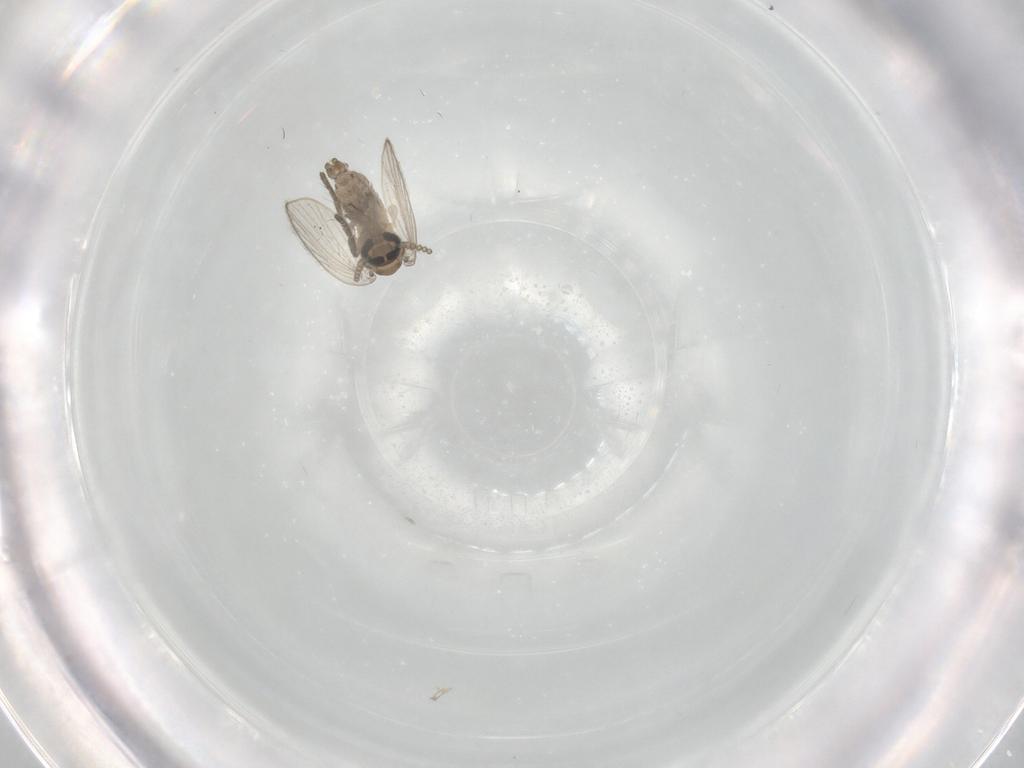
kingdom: Animalia
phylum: Arthropoda
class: Insecta
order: Diptera
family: Psychodidae
